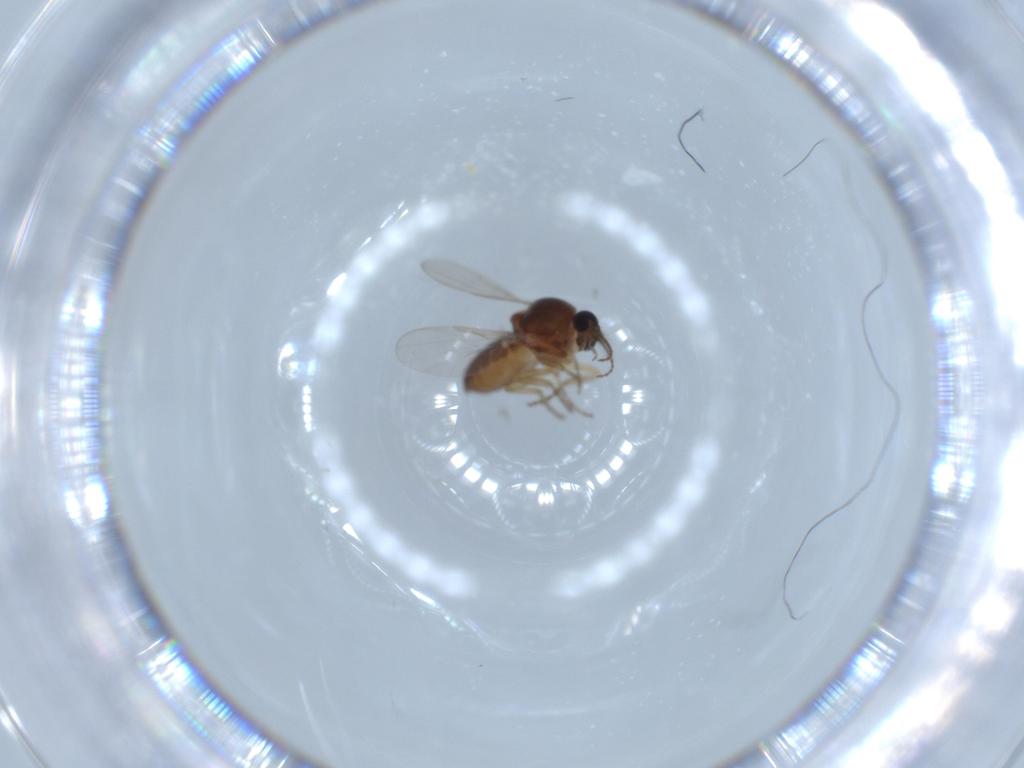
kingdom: Animalia
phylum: Arthropoda
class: Insecta
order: Diptera
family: Ceratopogonidae
